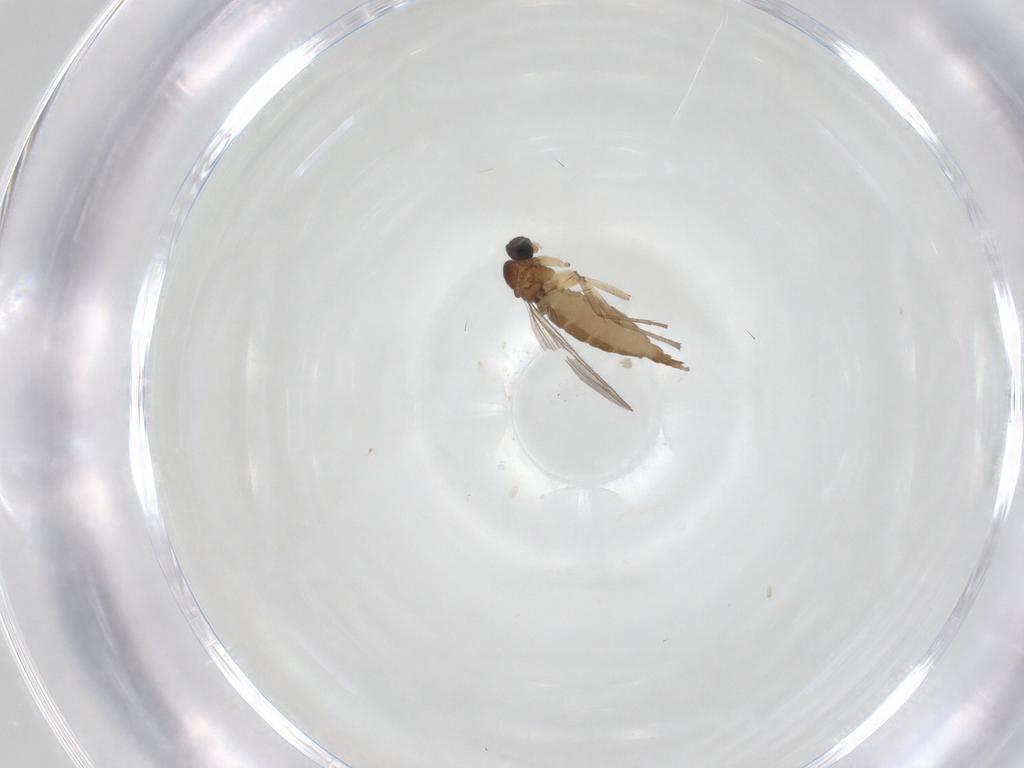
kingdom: Animalia
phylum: Arthropoda
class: Insecta
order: Diptera
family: Sciaridae
